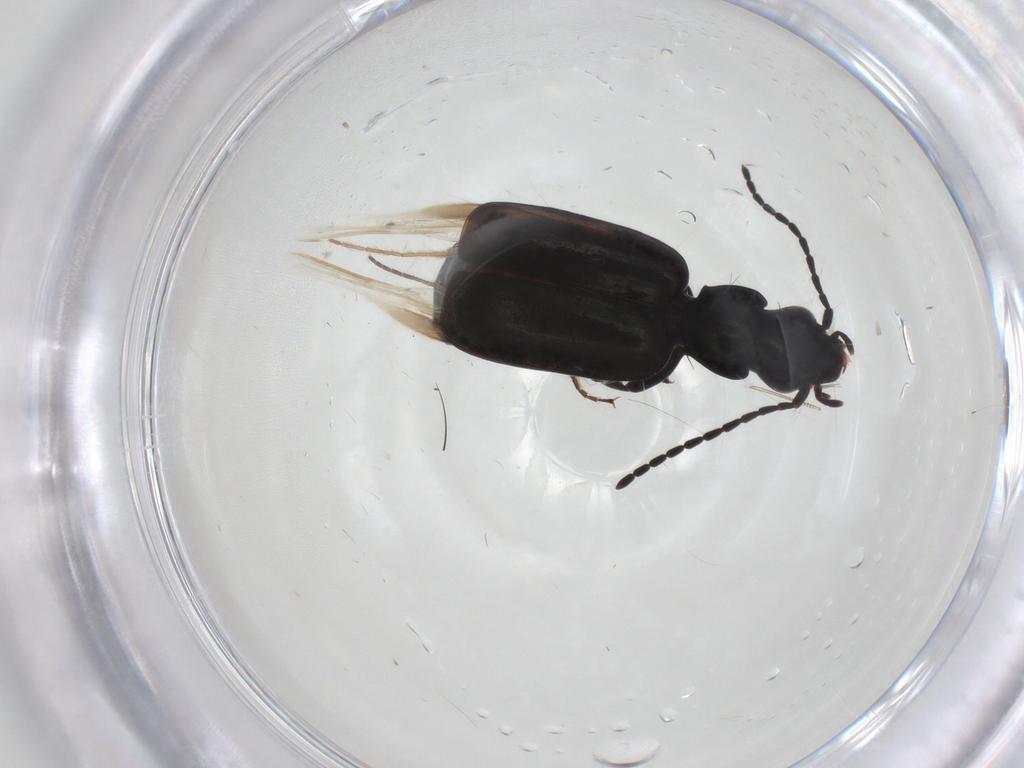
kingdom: Animalia
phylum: Arthropoda
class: Insecta
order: Coleoptera
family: Carabidae
